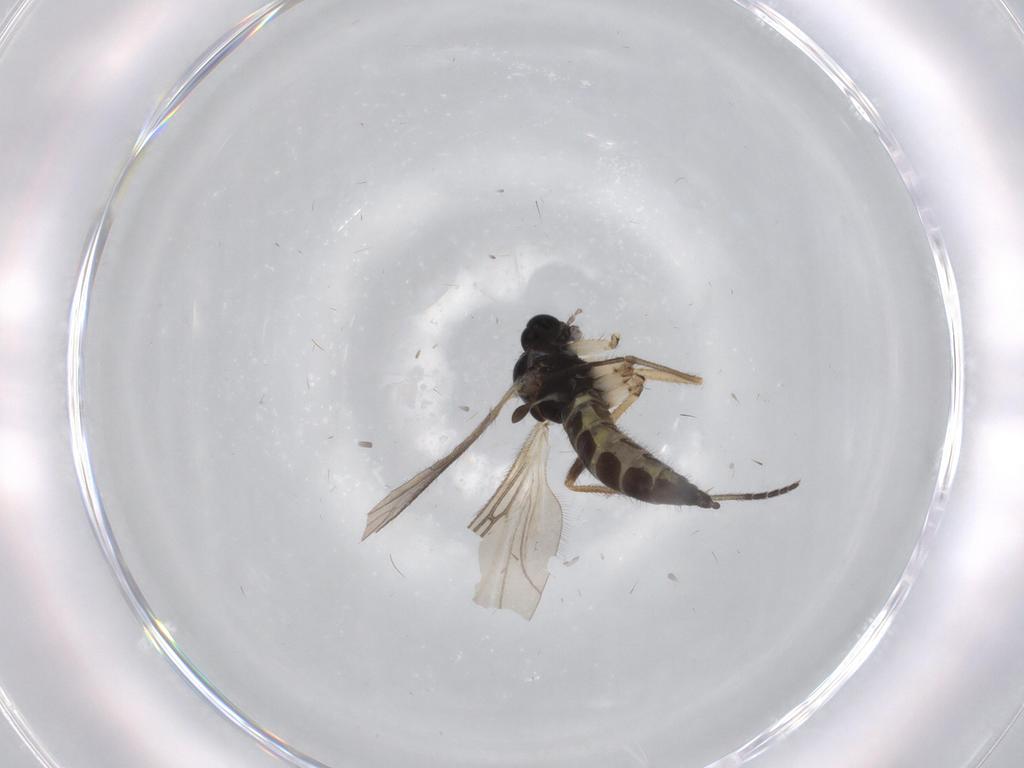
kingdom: Animalia
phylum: Arthropoda
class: Insecta
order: Diptera
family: Sciaridae
